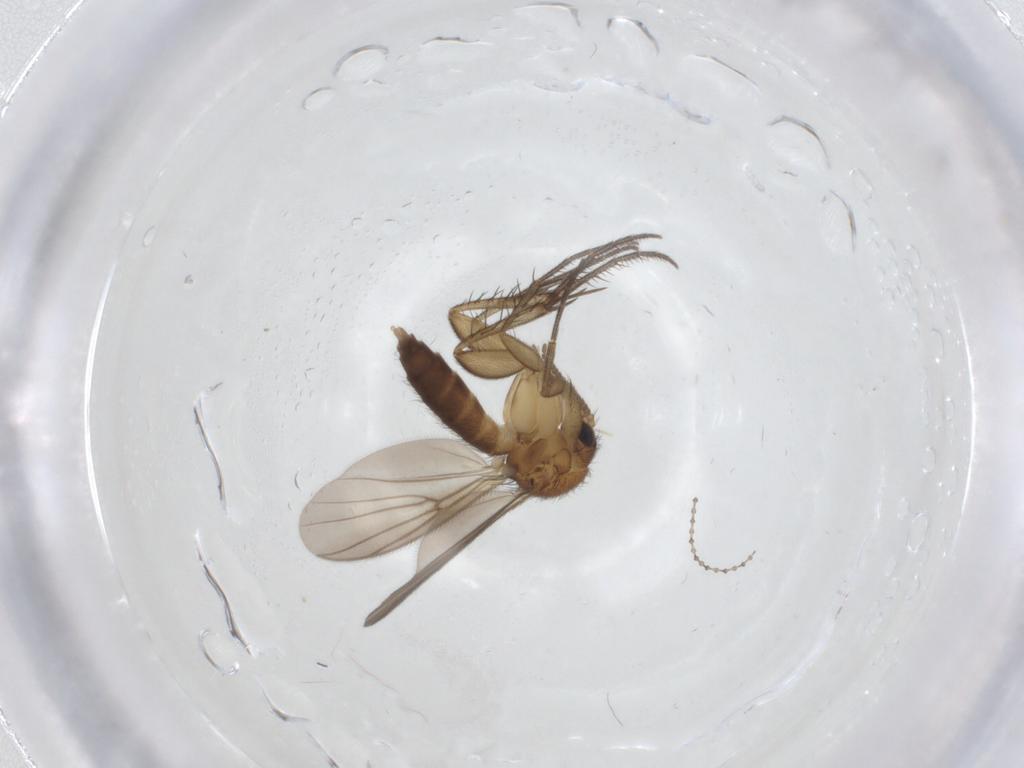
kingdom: Animalia
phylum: Arthropoda
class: Insecta
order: Diptera
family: Mycetophilidae
